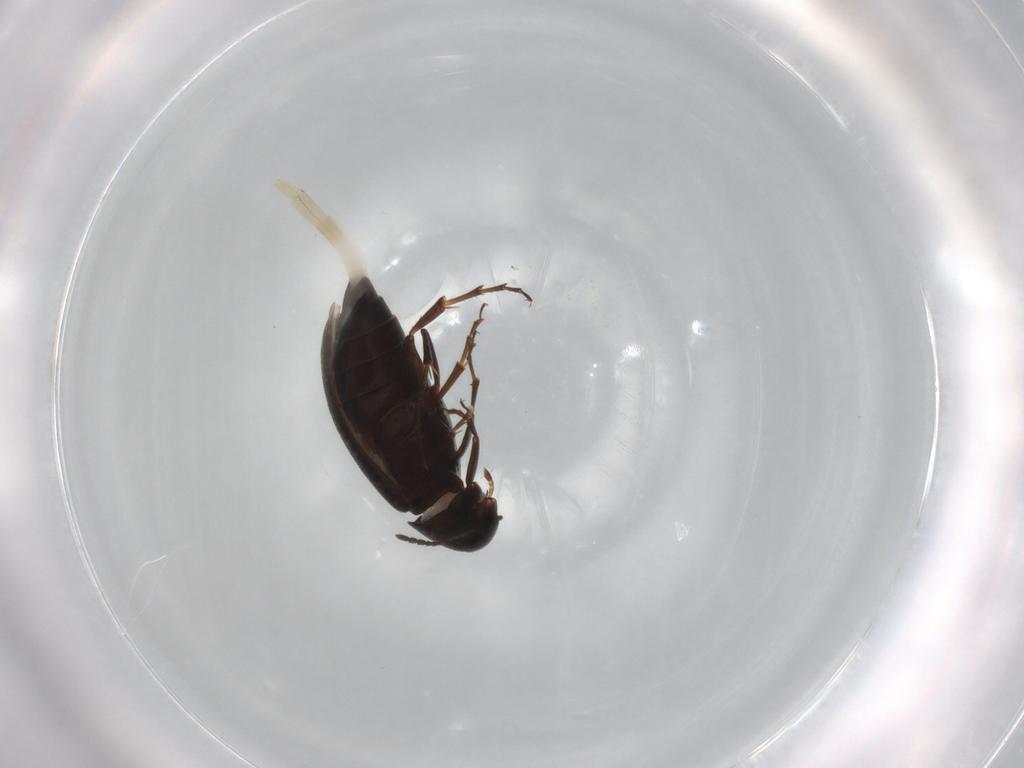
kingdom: Animalia
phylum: Arthropoda
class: Insecta
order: Coleoptera
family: Scraptiidae
